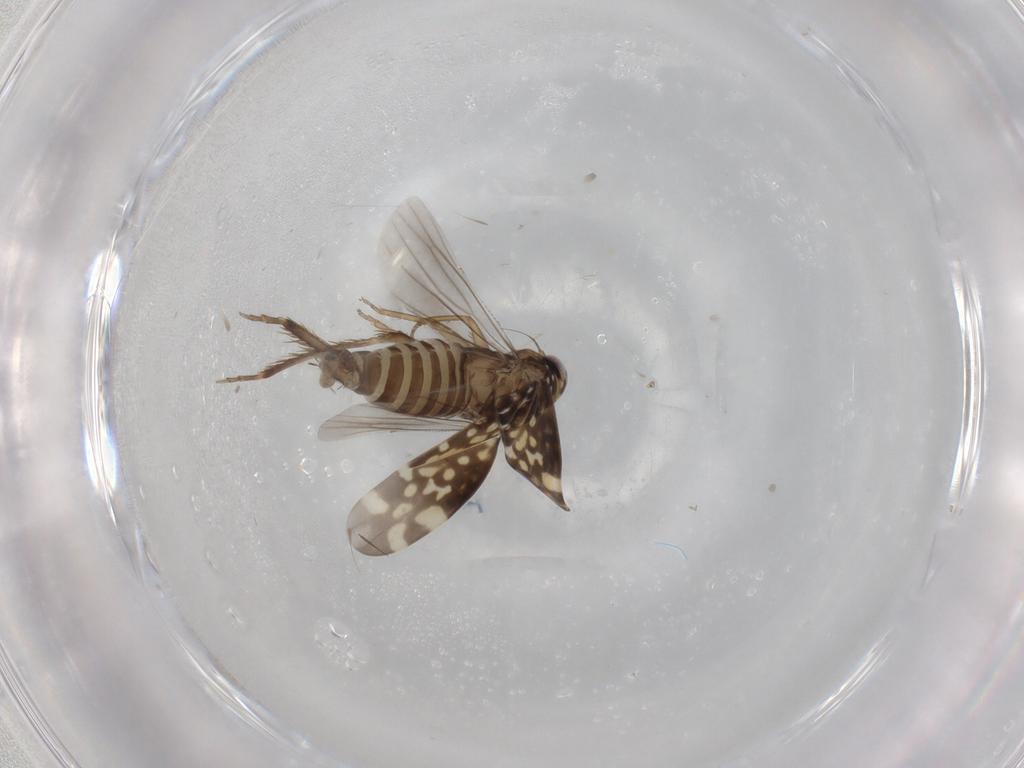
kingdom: Animalia
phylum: Arthropoda
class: Insecta
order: Hemiptera
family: Cicadellidae
